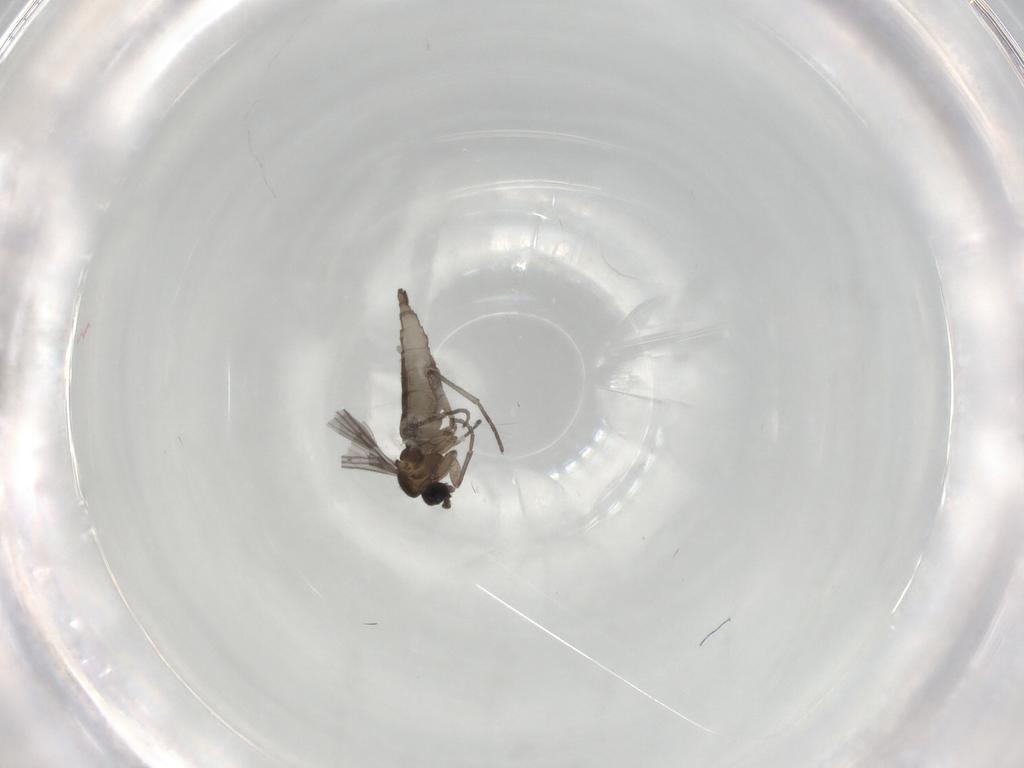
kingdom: Animalia
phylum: Arthropoda
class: Insecta
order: Diptera
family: Cecidomyiidae
